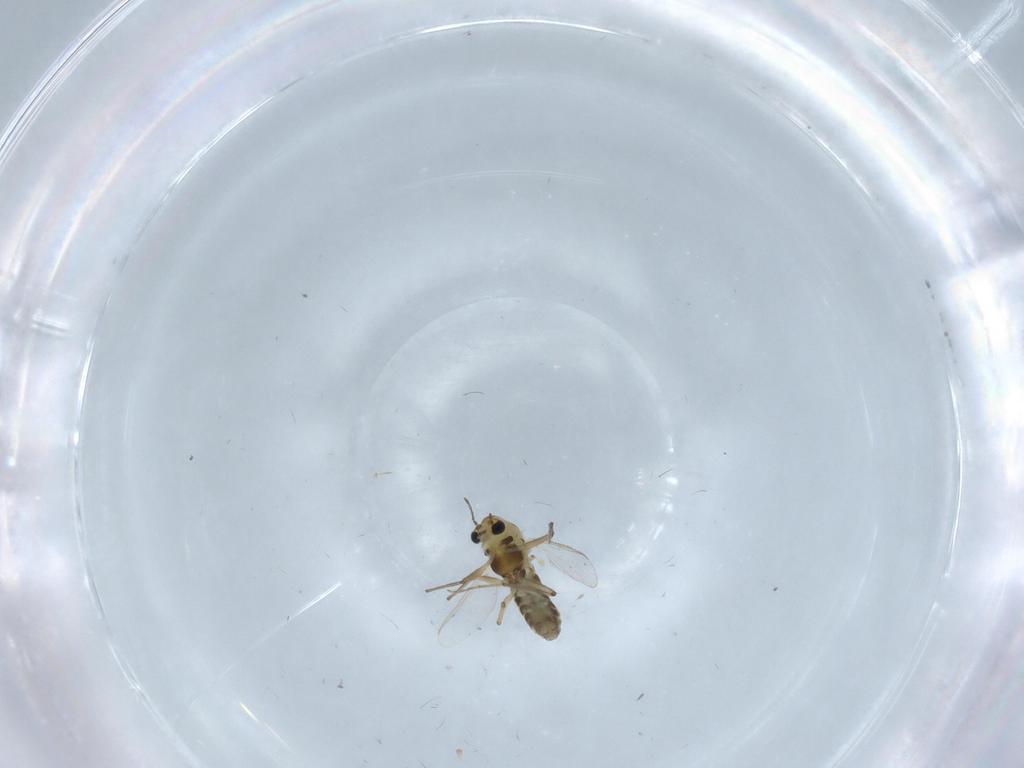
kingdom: Animalia
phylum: Arthropoda
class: Insecta
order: Diptera
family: Chironomidae
